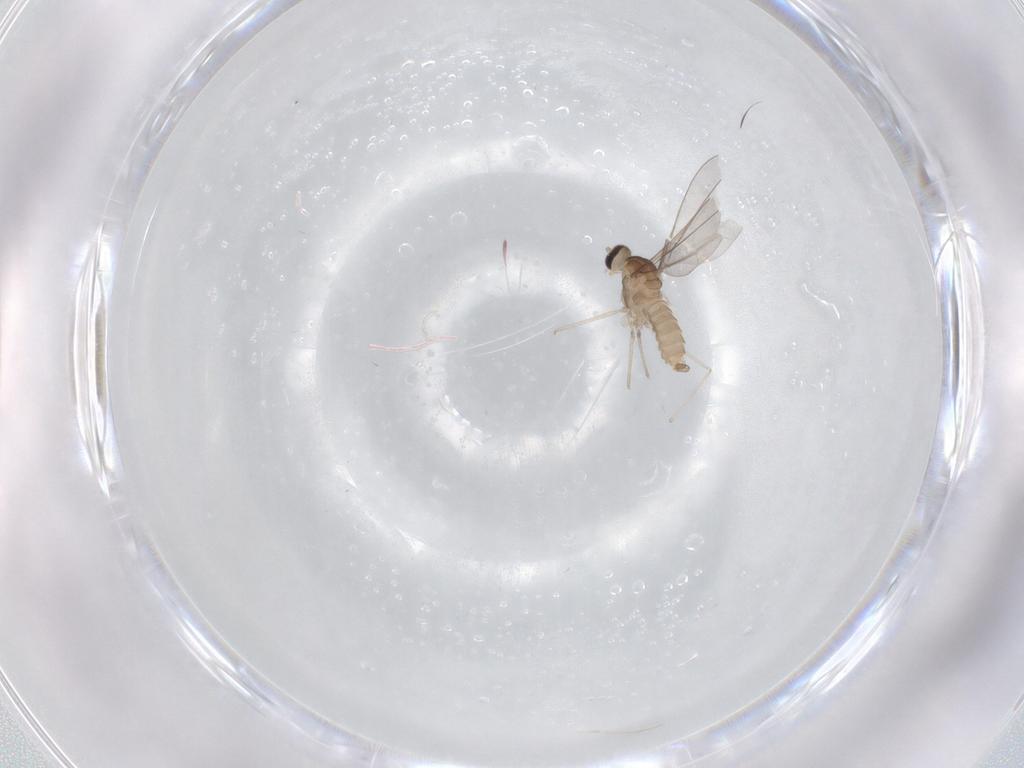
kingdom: Animalia
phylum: Arthropoda
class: Insecta
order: Diptera
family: Cecidomyiidae
